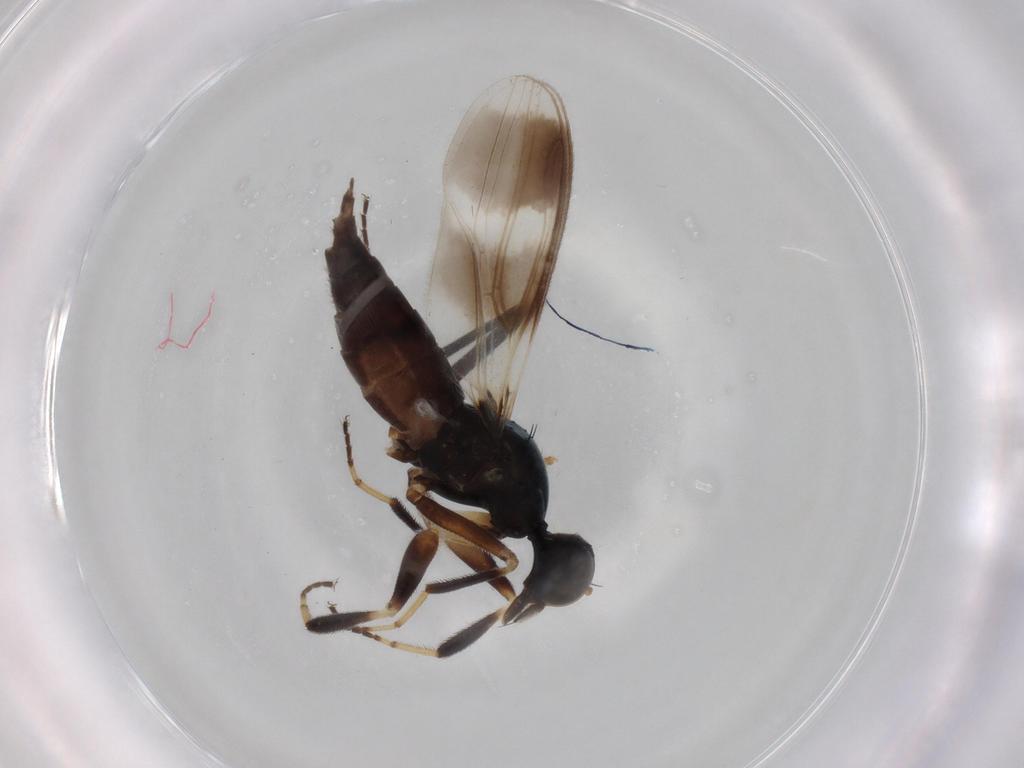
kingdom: Animalia
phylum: Arthropoda
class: Insecta
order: Diptera
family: Hybotidae
